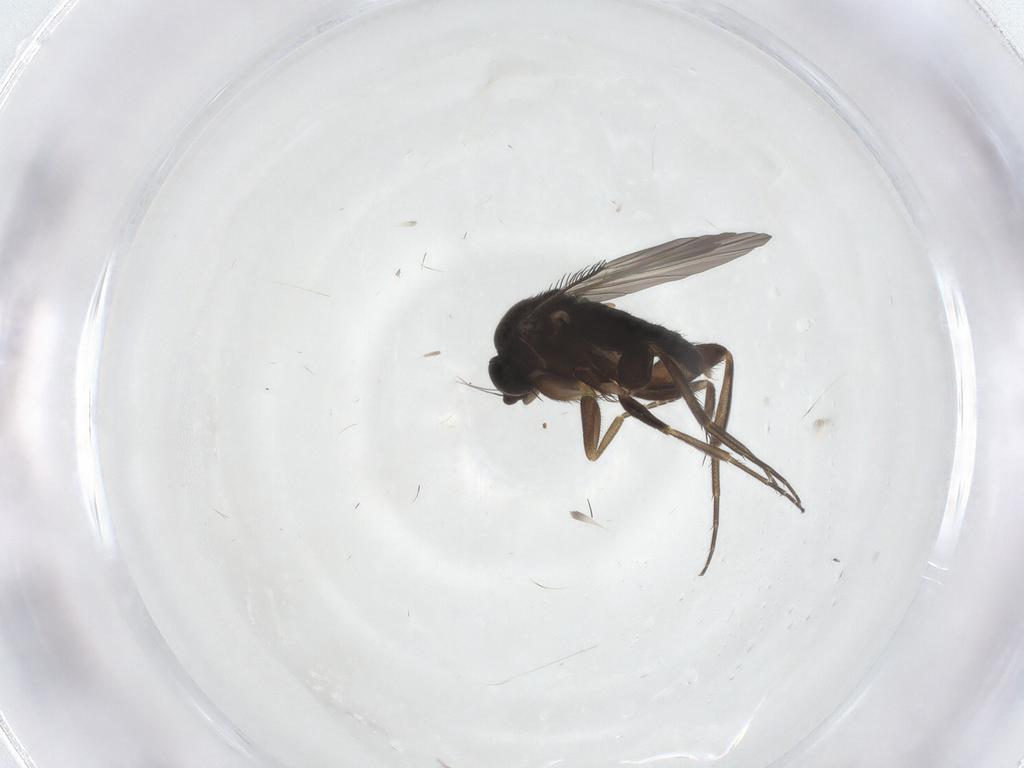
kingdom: Animalia
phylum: Arthropoda
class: Insecta
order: Diptera
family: Phoridae
